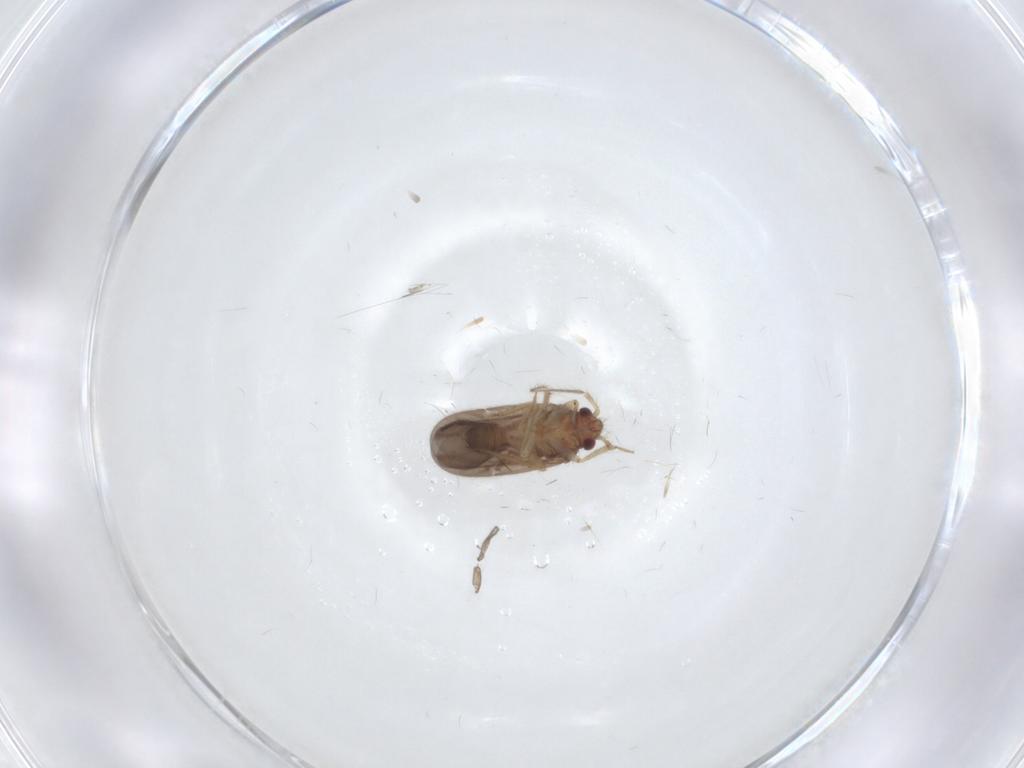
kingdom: Animalia
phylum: Arthropoda
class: Insecta
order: Hemiptera
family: Ceratocombidae
